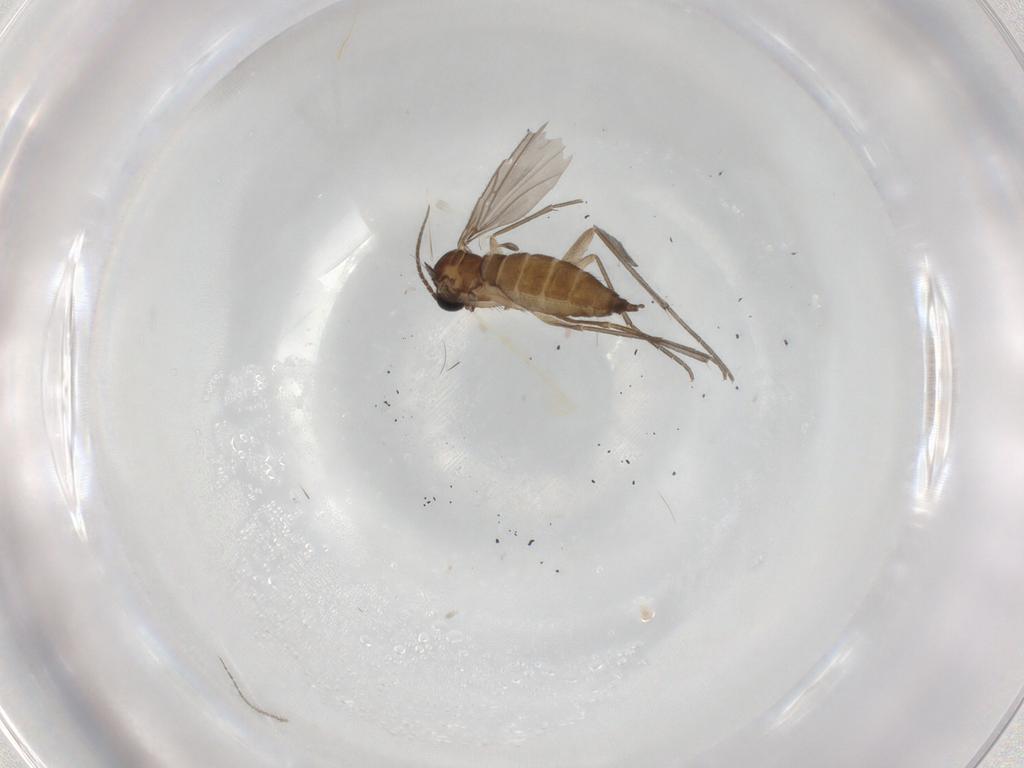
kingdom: Animalia
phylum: Arthropoda
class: Insecta
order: Diptera
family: Sciaridae
